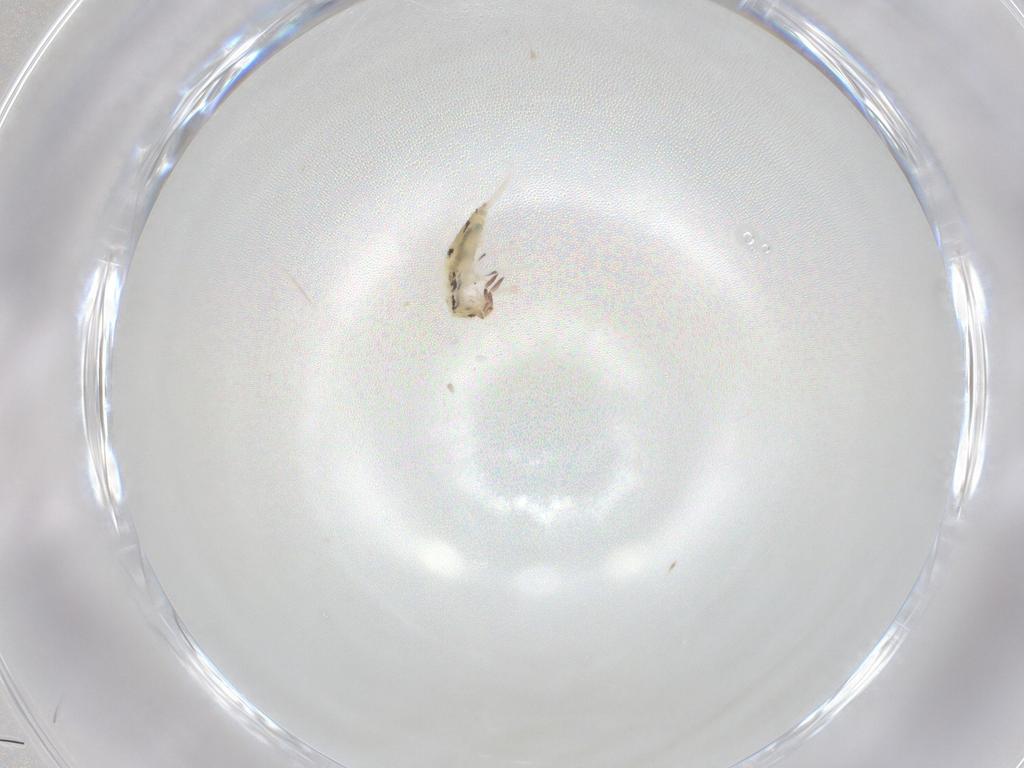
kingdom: Animalia
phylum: Arthropoda
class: Collembola
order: Entomobryomorpha
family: Entomobryidae
